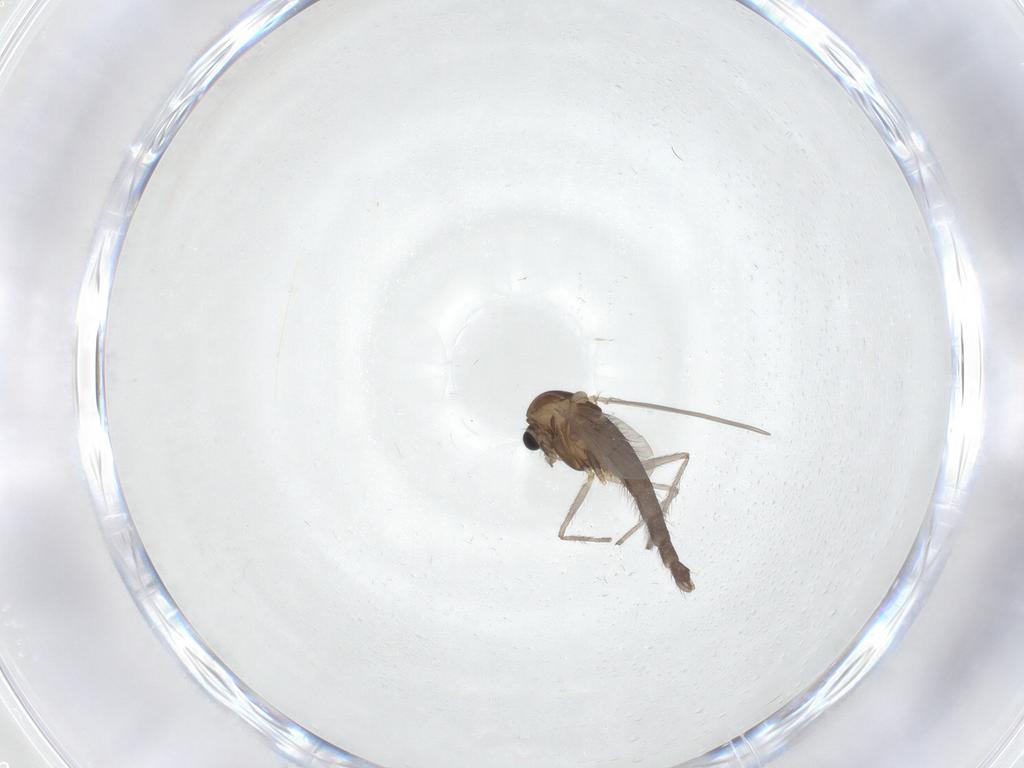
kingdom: Animalia
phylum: Arthropoda
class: Insecta
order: Diptera
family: Chironomidae
